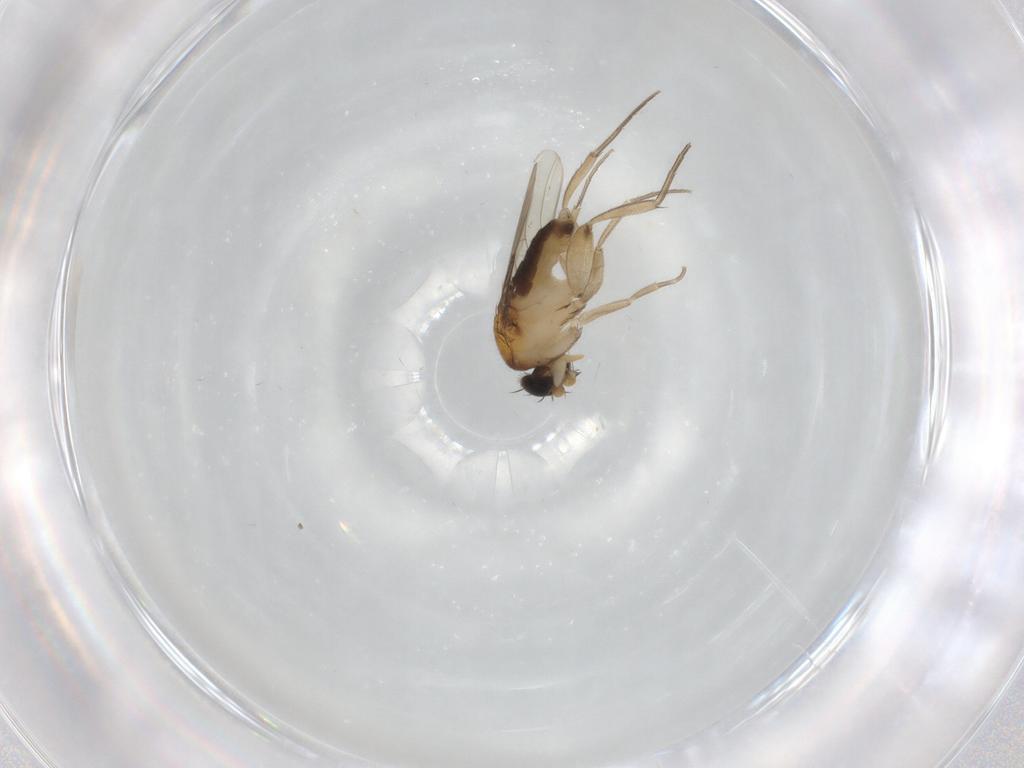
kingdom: Animalia
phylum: Arthropoda
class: Insecta
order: Diptera
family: Phoridae
